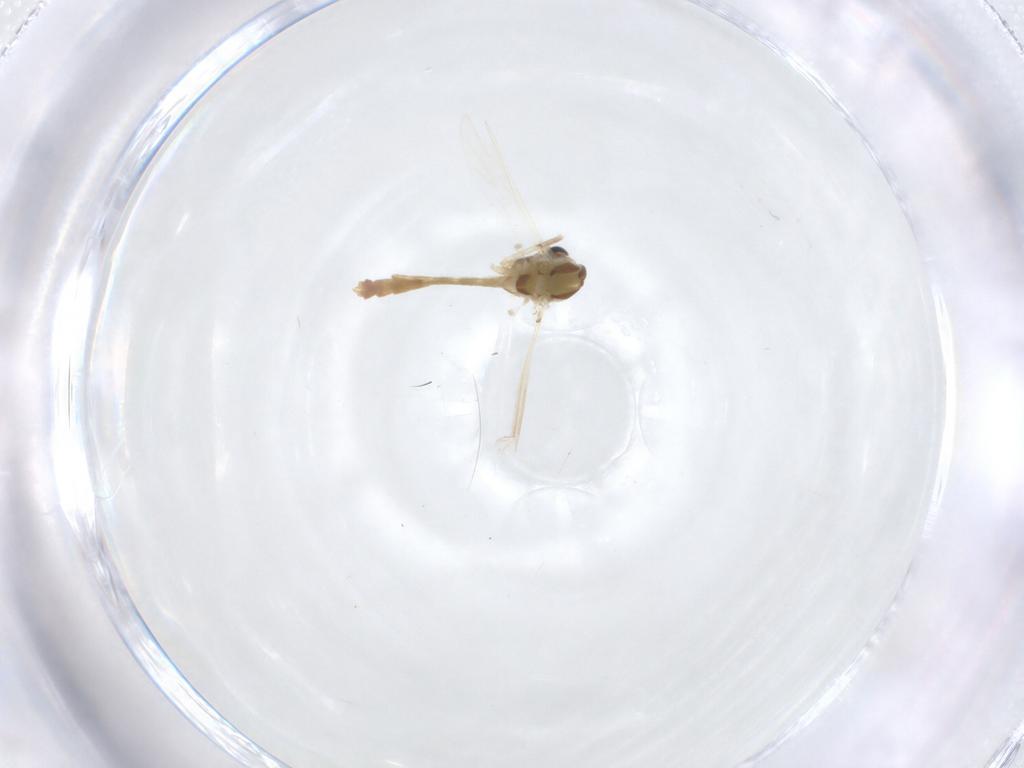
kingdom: Animalia
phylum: Arthropoda
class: Insecta
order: Diptera
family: Chironomidae
